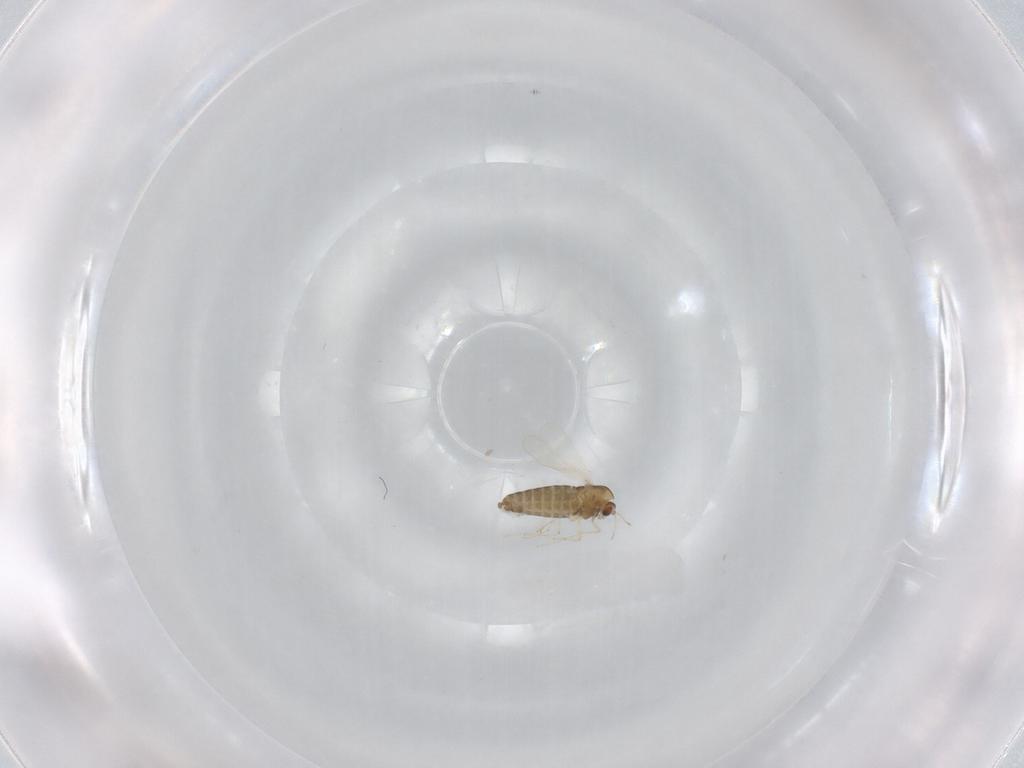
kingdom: Animalia
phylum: Arthropoda
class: Insecta
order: Diptera
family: Chironomidae
